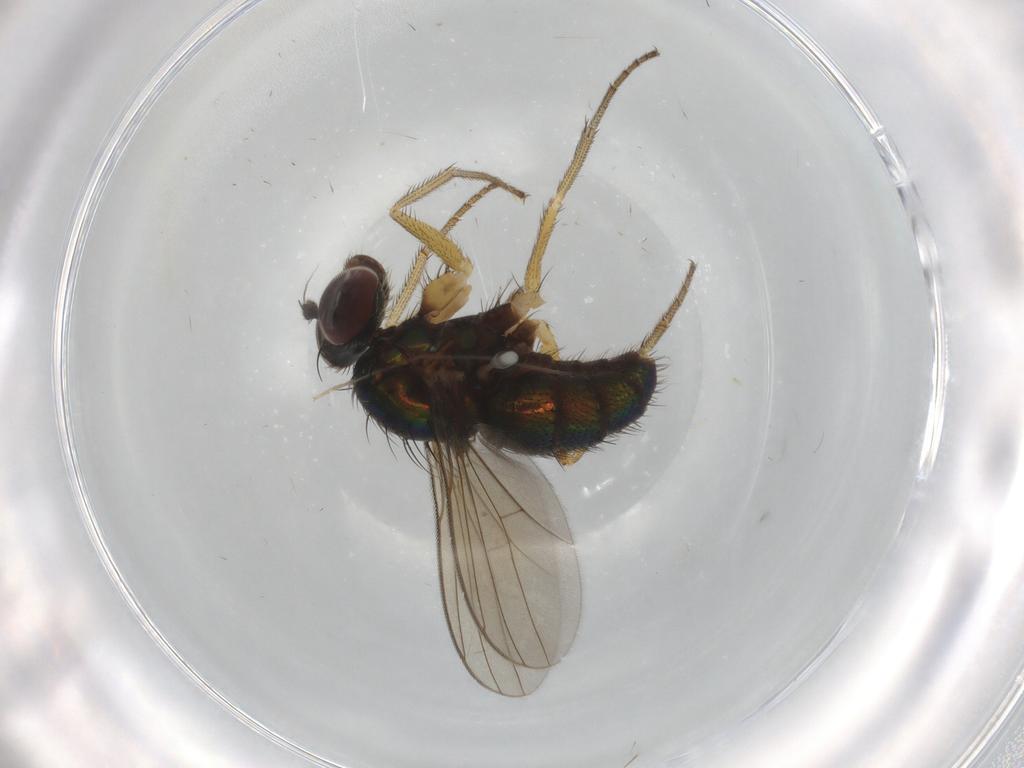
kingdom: Animalia
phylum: Arthropoda
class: Insecta
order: Diptera
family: Dolichopodidae
